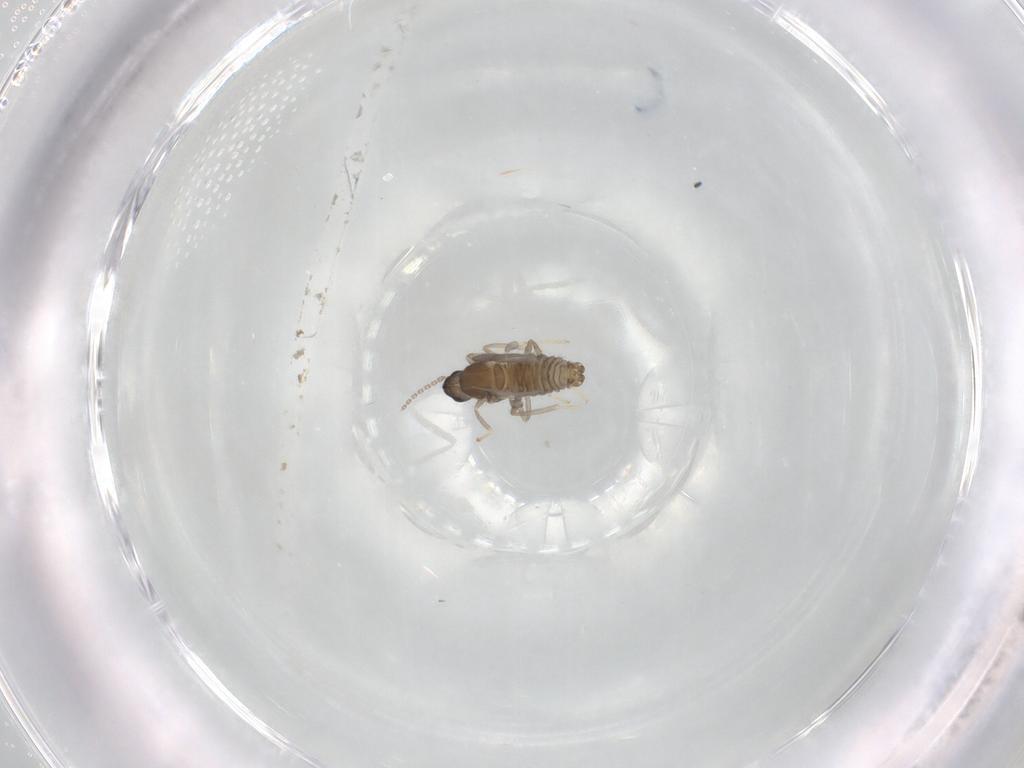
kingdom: Animalia
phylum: Arthropoda
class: Insecta
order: Diptera
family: Cecidomyiidae
